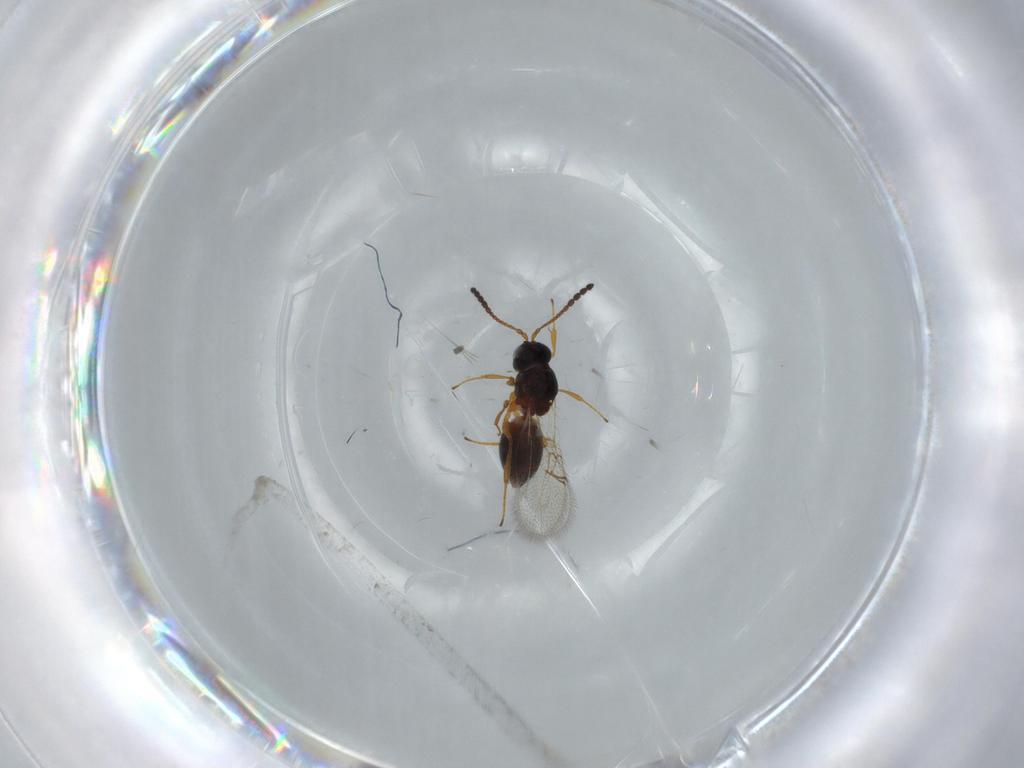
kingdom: Animalia
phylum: Arthropoda
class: Insecta
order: Hymenoptera
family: Figitidae
